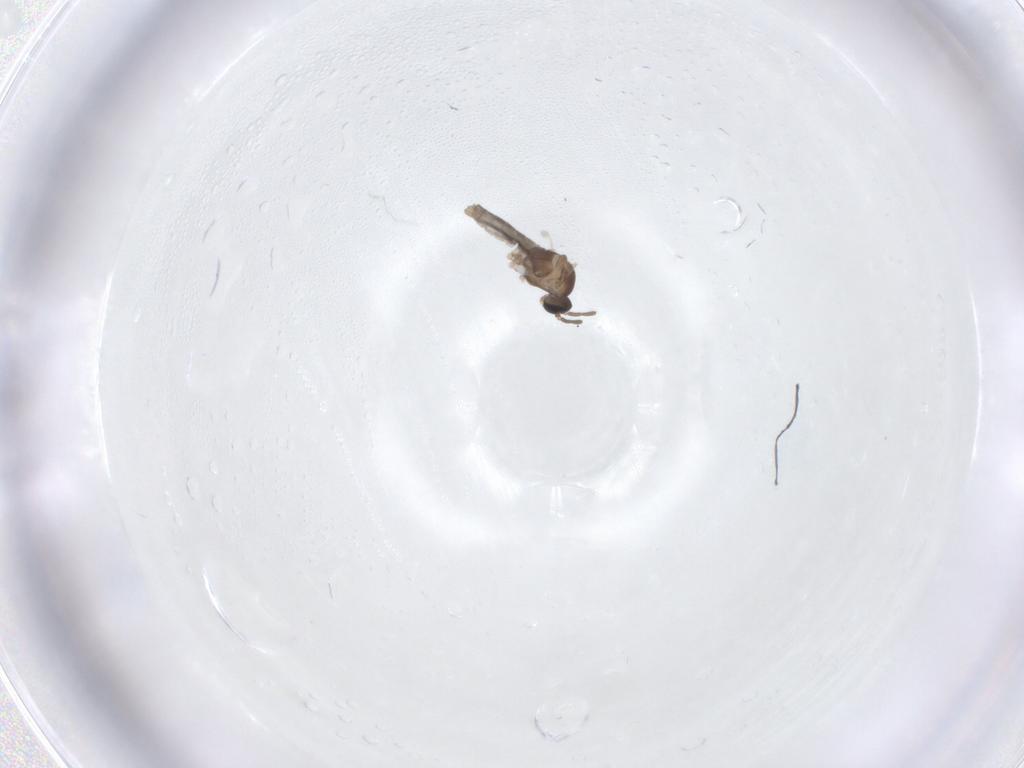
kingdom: Animalia
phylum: Arthropoda
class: Insecta
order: Diptera
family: Cecidomyiidae
